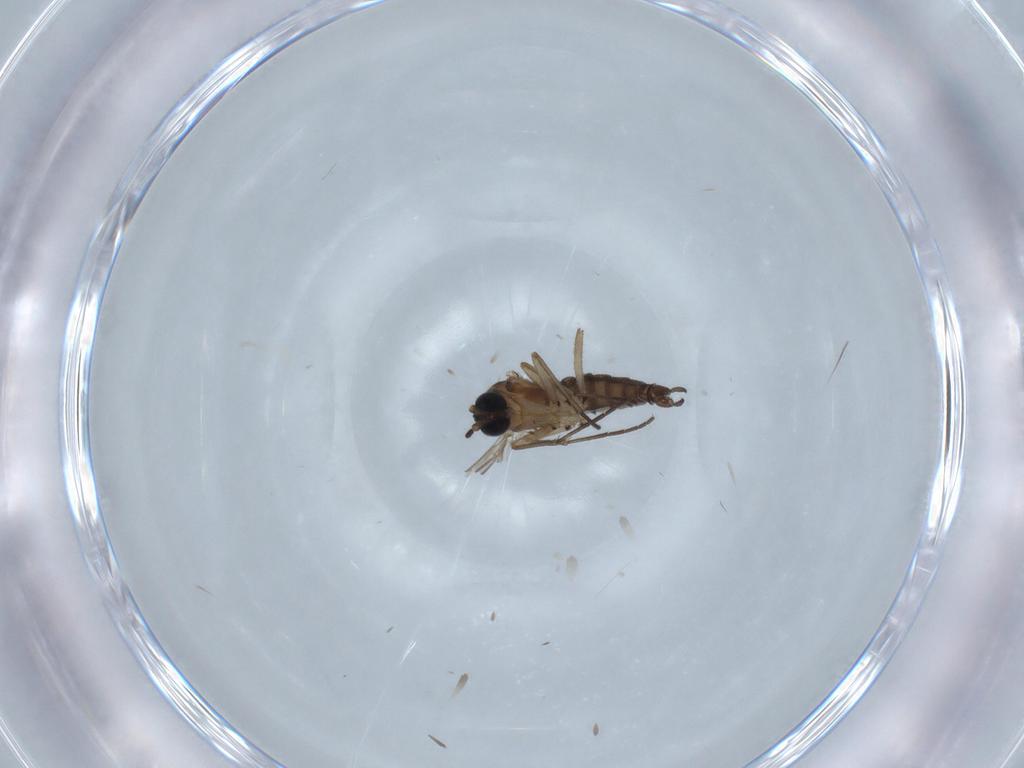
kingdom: Animalia
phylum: Arthropoda
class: Insecta
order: Diptera
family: Sciaridae
